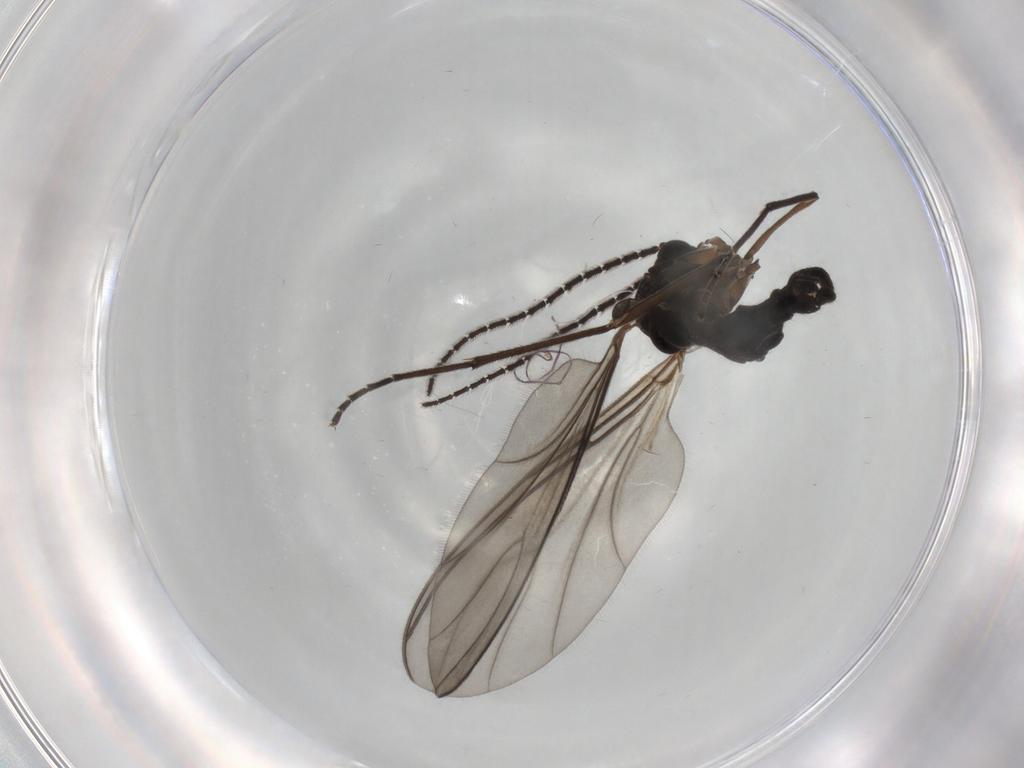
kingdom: Animalia
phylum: Arthropoda
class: Insecta
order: Diptera
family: Sciaridae
